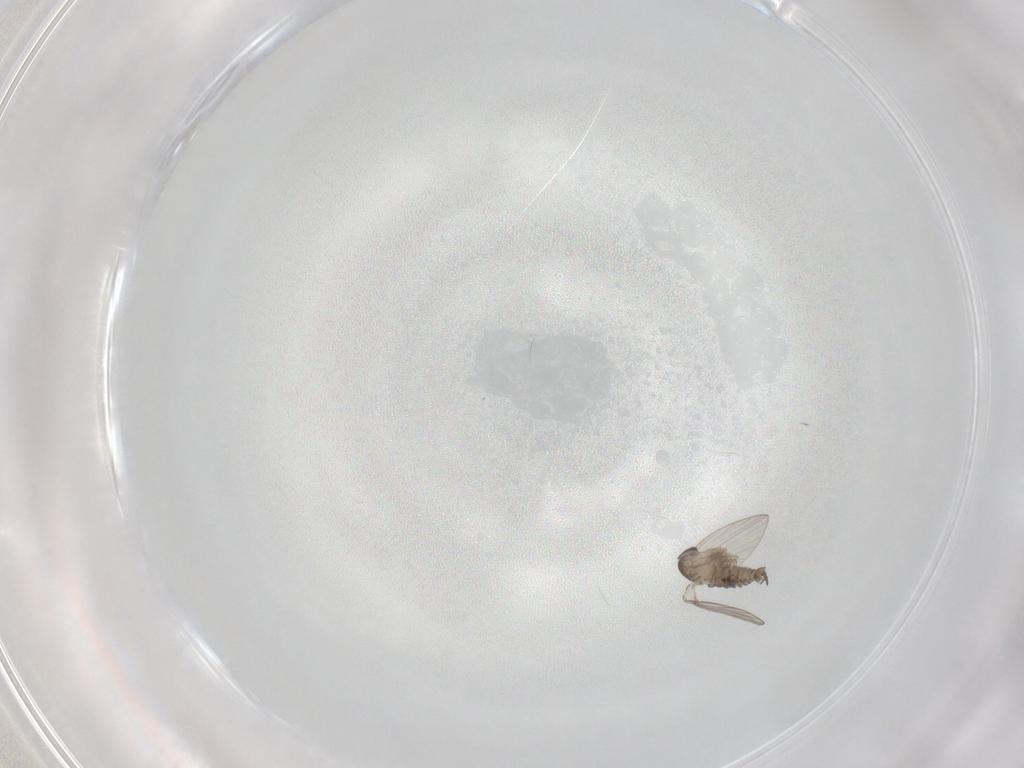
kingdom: Animalia
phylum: Arthropoda
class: Insecta
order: Diptera
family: Psychodidae
